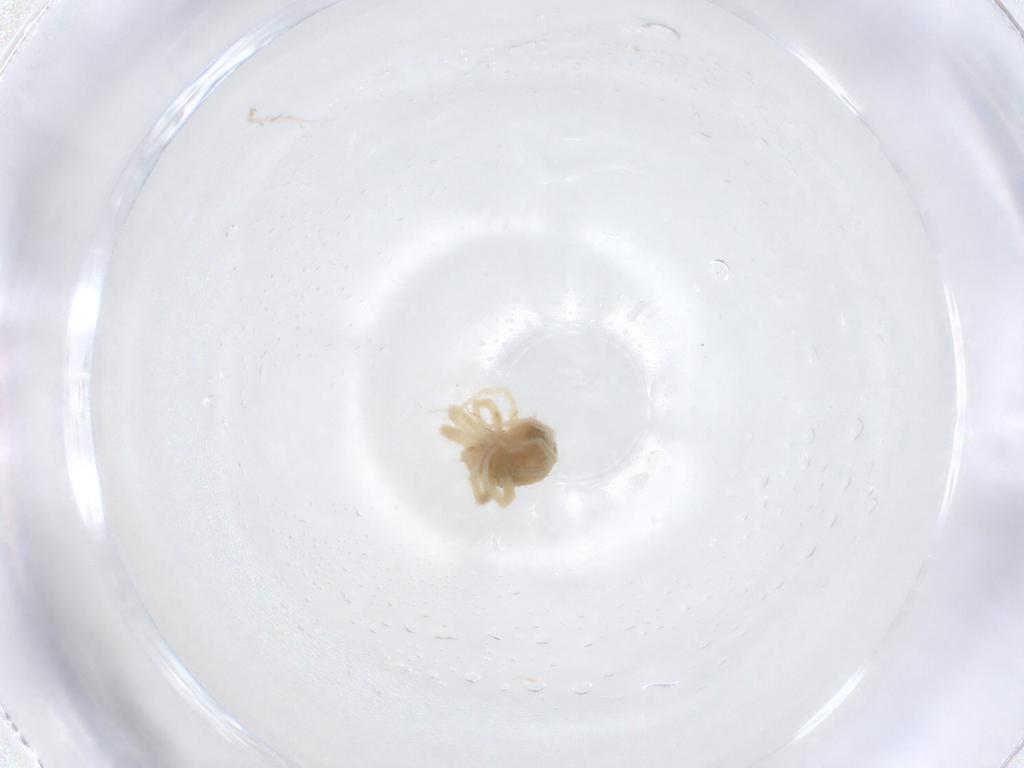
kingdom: Animalia
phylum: Arthropoda
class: Arachnida
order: Trombidiformes
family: Anystidae
